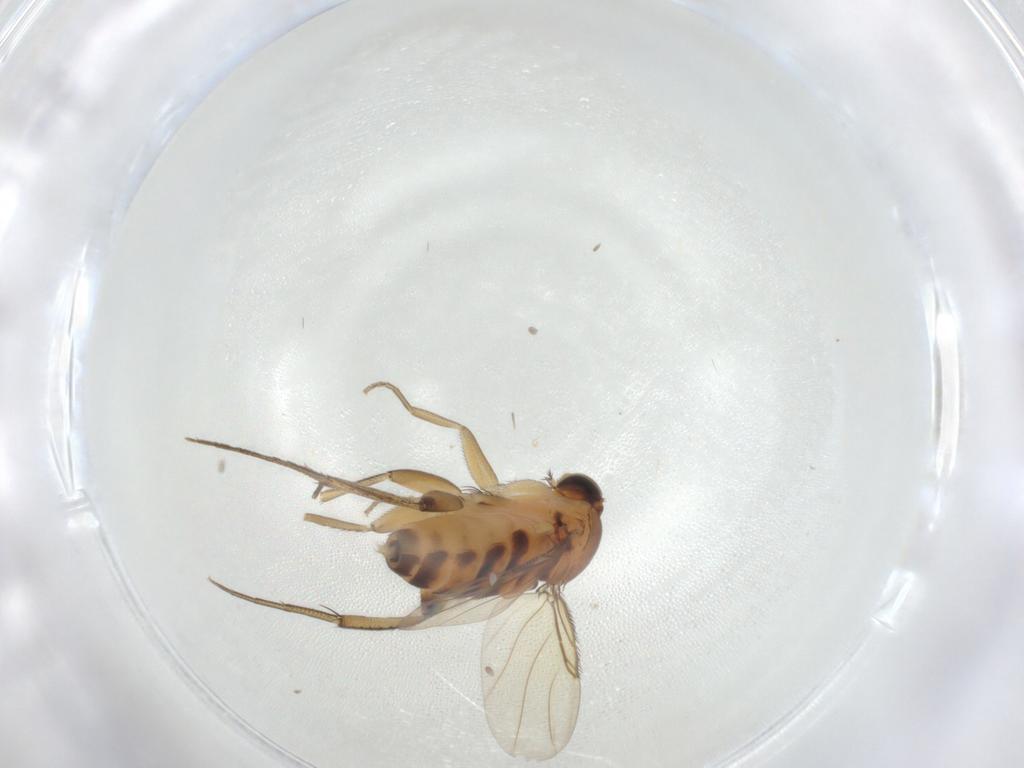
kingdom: Animalia
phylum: Arthropoda
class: Insecta
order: Diptera
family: Phoridae
